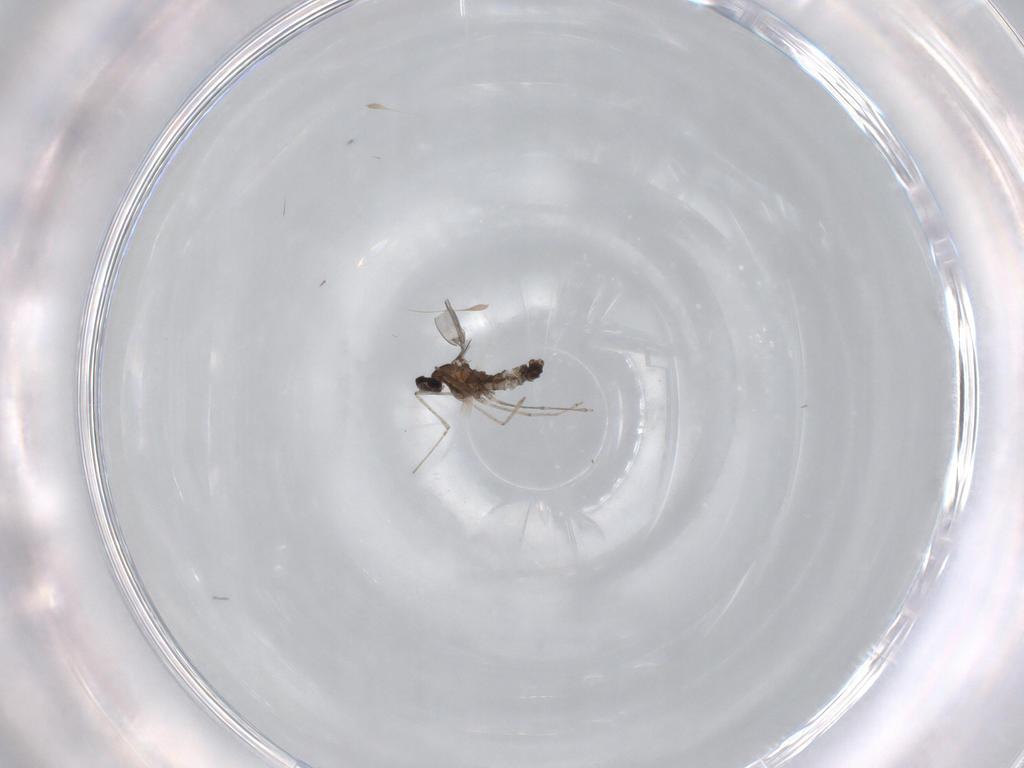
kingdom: Animalia
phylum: Arthropoda
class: Insecta
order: Diptera
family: Cecidomyiidae
